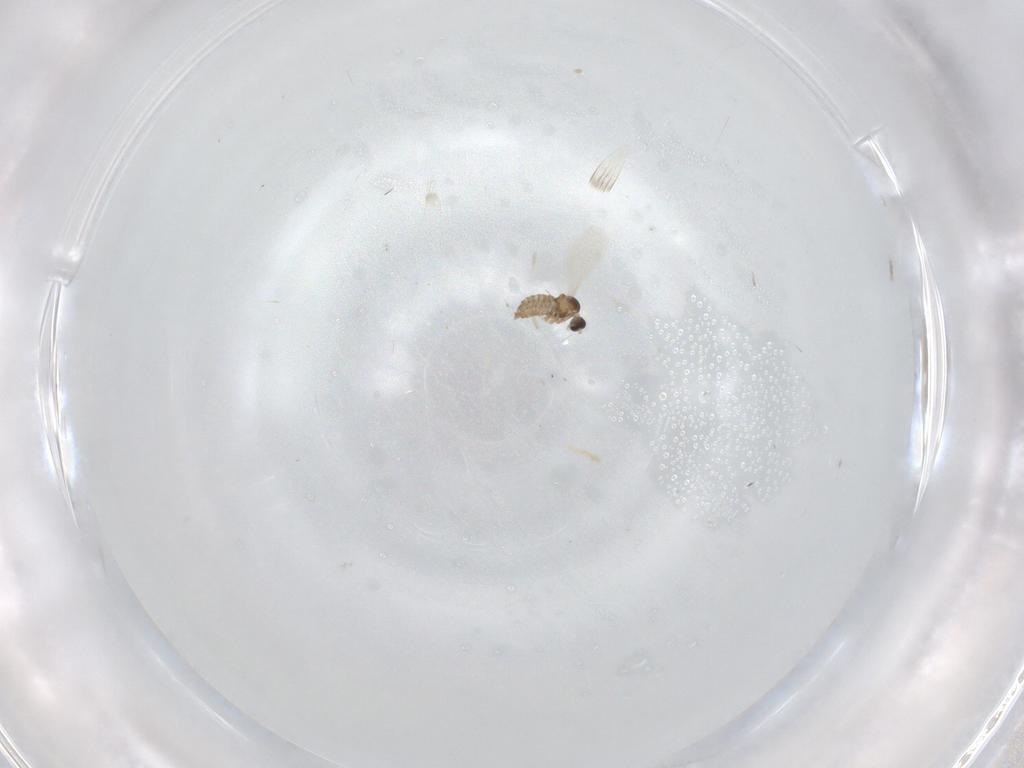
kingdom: Animalia
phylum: Arthropoda
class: Insecta
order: Diptera
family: Cecidomyiidae
